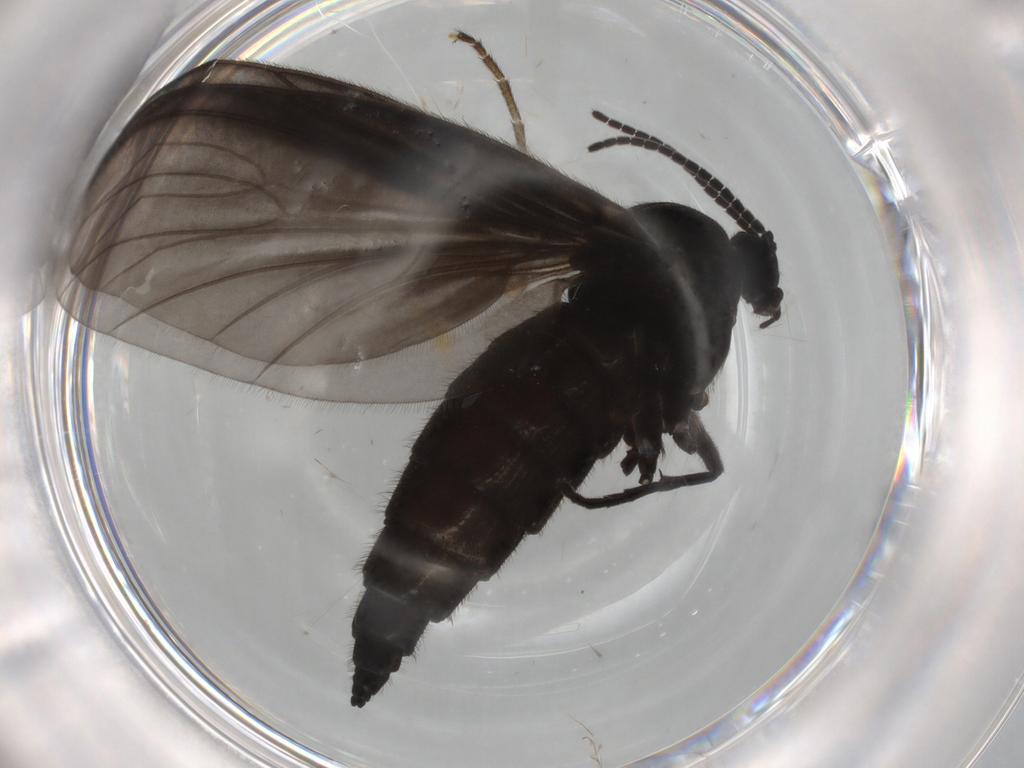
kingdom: Animalia
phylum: Arthropoda
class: Insecta
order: Diptera
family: Mycetophilidae
